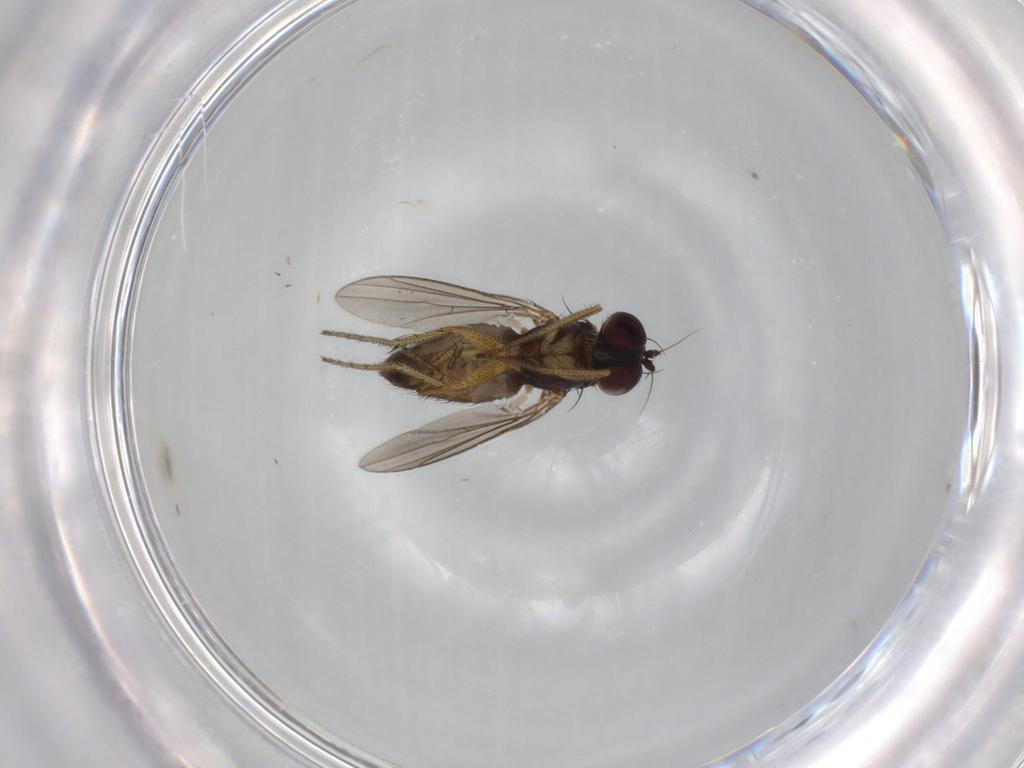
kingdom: Animalia
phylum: Arthropoda
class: Insecta
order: Diptera
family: Dolichopodidae
